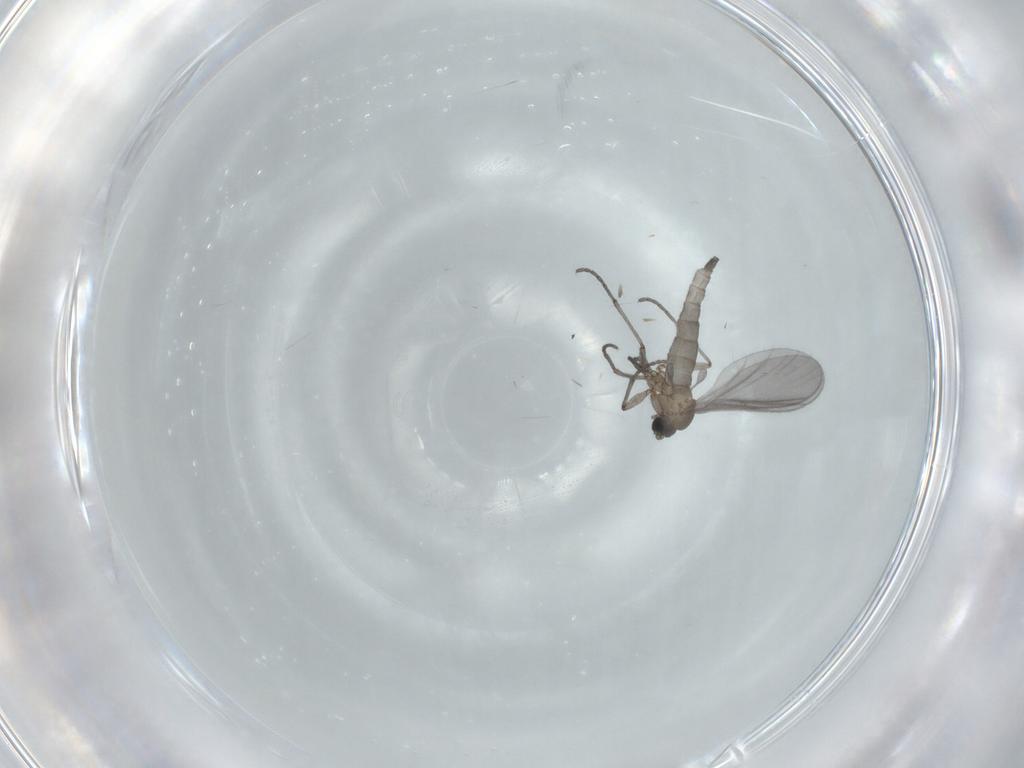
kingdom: Animalia
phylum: Arthropoda
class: Insecta
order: Diptera
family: Sciaridae
